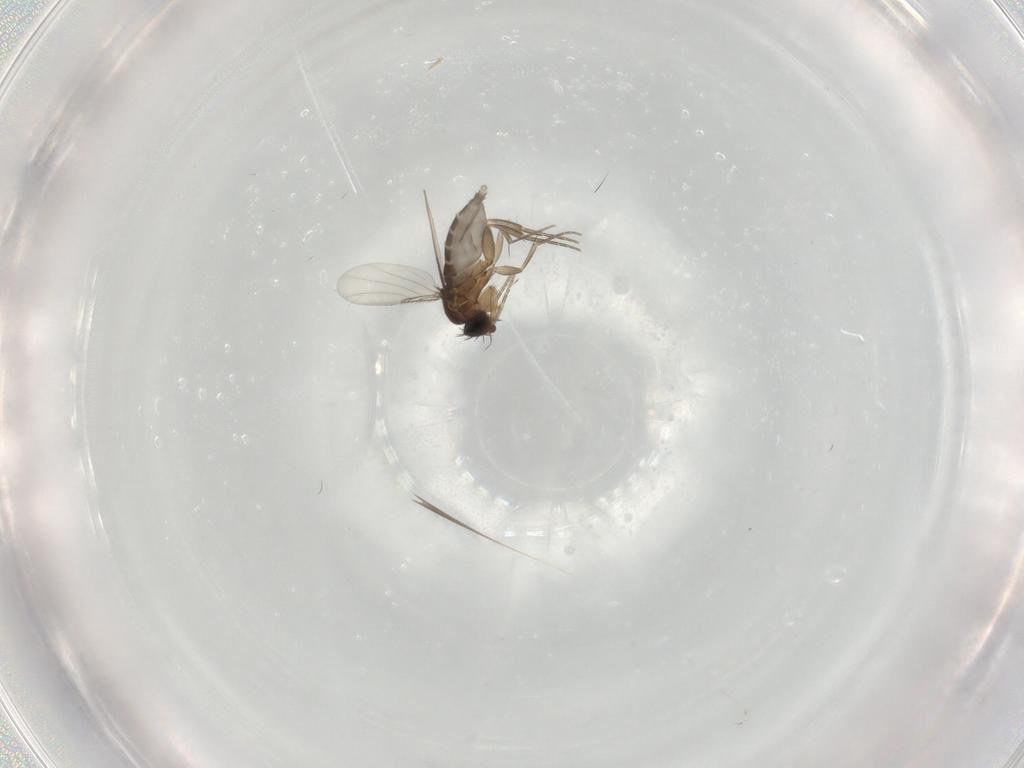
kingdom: Animalia
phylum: Arthropoda
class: Insecta
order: Diptera
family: Phoridae
